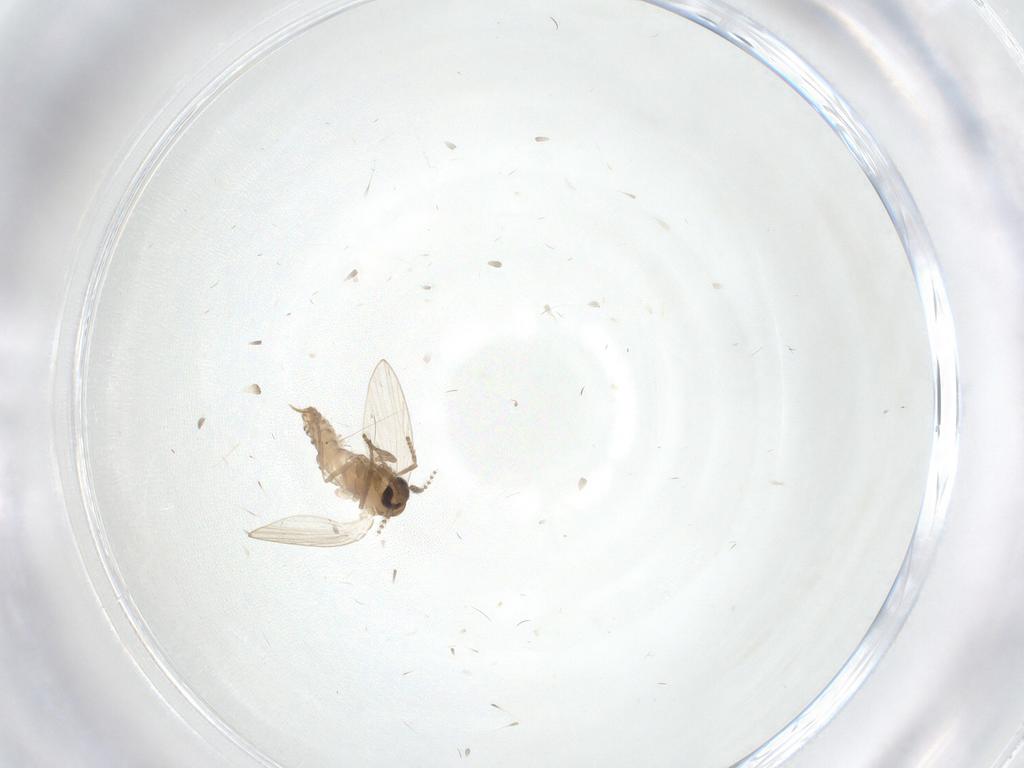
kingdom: Animalia
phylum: Arthropoda
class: Insecta
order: Diptera
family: Psychodidae
